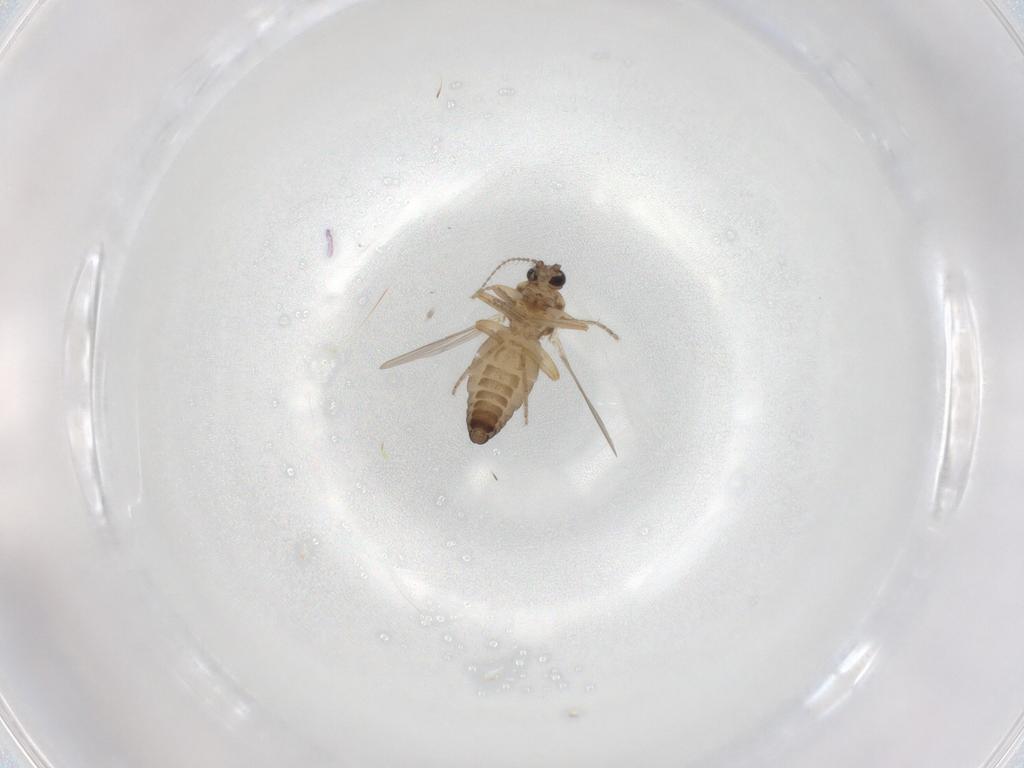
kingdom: Animalia
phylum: Arthropoda
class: Insecta
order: Diptera
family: Ceratopogonidae
